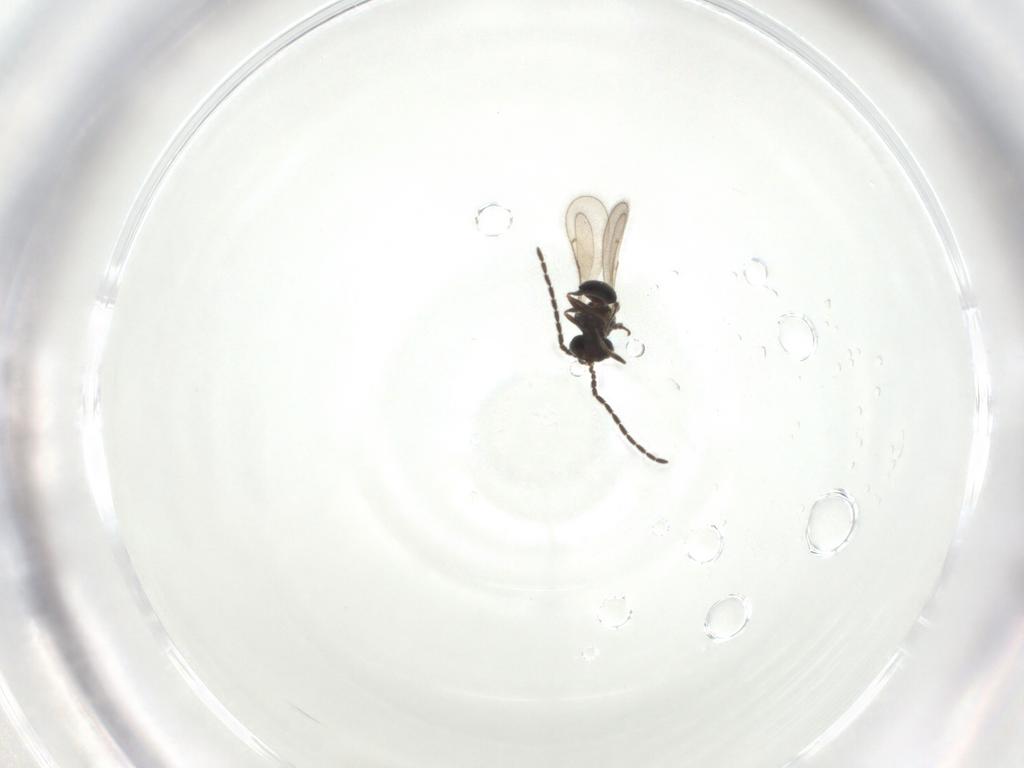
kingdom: Animalia
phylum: Arthropoda
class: Insecta
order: Hymenoptera
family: Scelionidae
